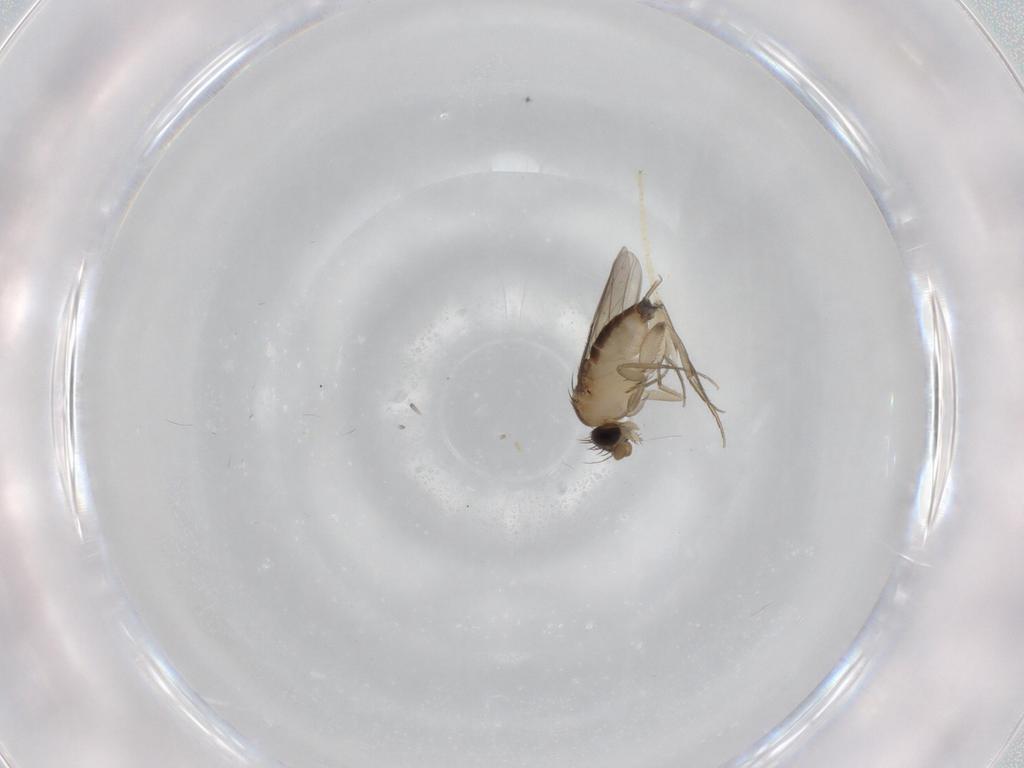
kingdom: Animalia
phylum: Arthropoda
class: Insecta
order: Diptera
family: Phoridae
